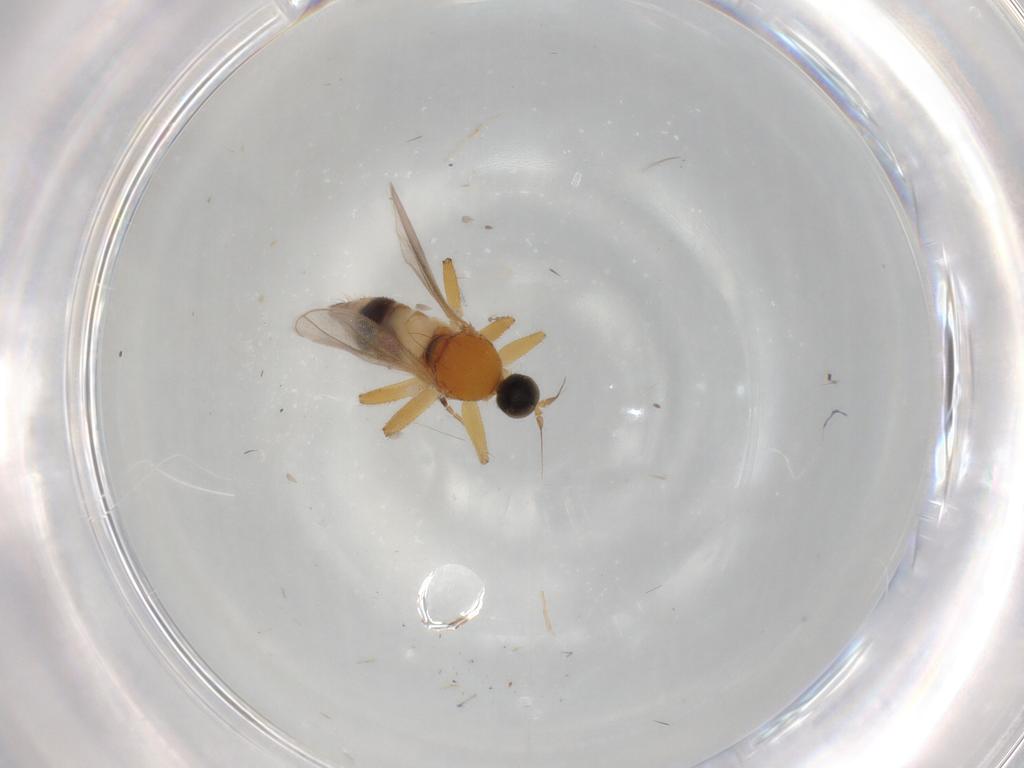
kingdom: Animalia
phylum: Arthropoda
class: Insecta
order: Diptera
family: Hybotidae
